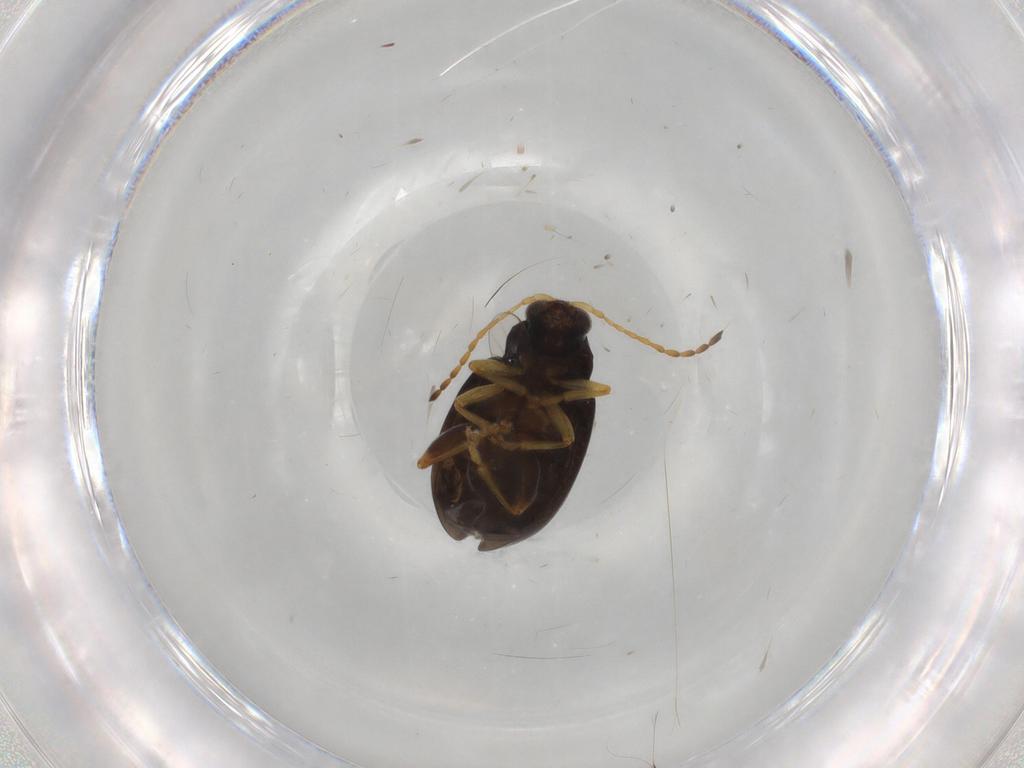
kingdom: Animalia
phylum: Arthropoda
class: Insecta
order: Coleoptera
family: Chrysomelidae
